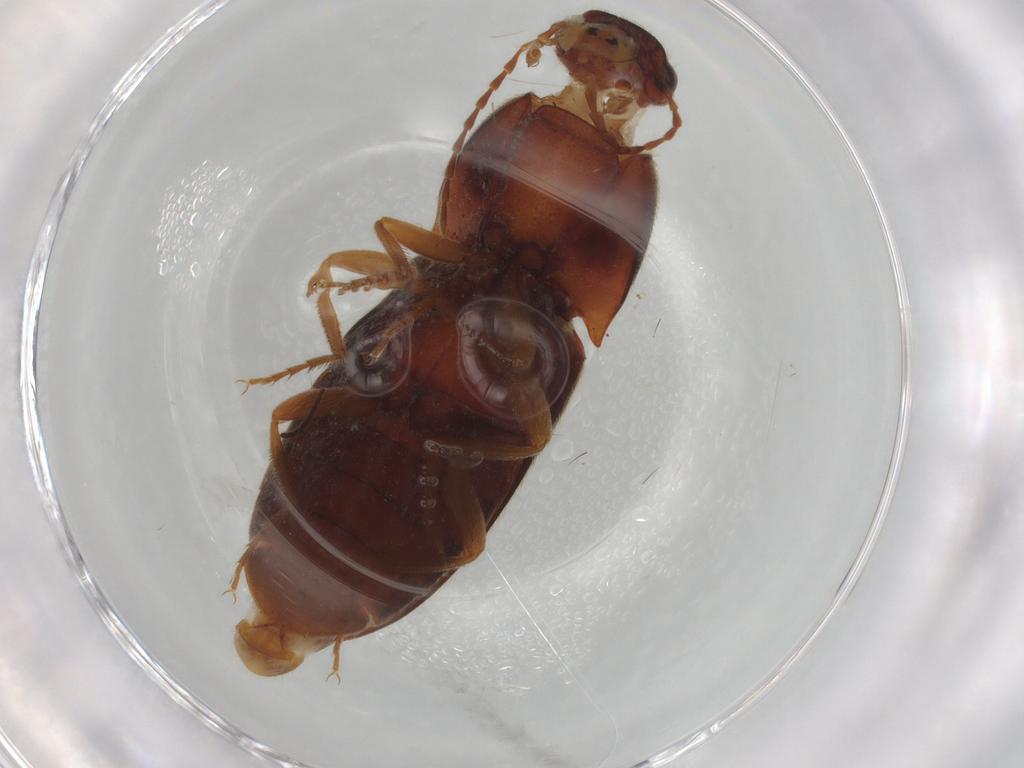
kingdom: Animalia
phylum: Arthropoda
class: Insecta
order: Coleoptera
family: Elateridae
